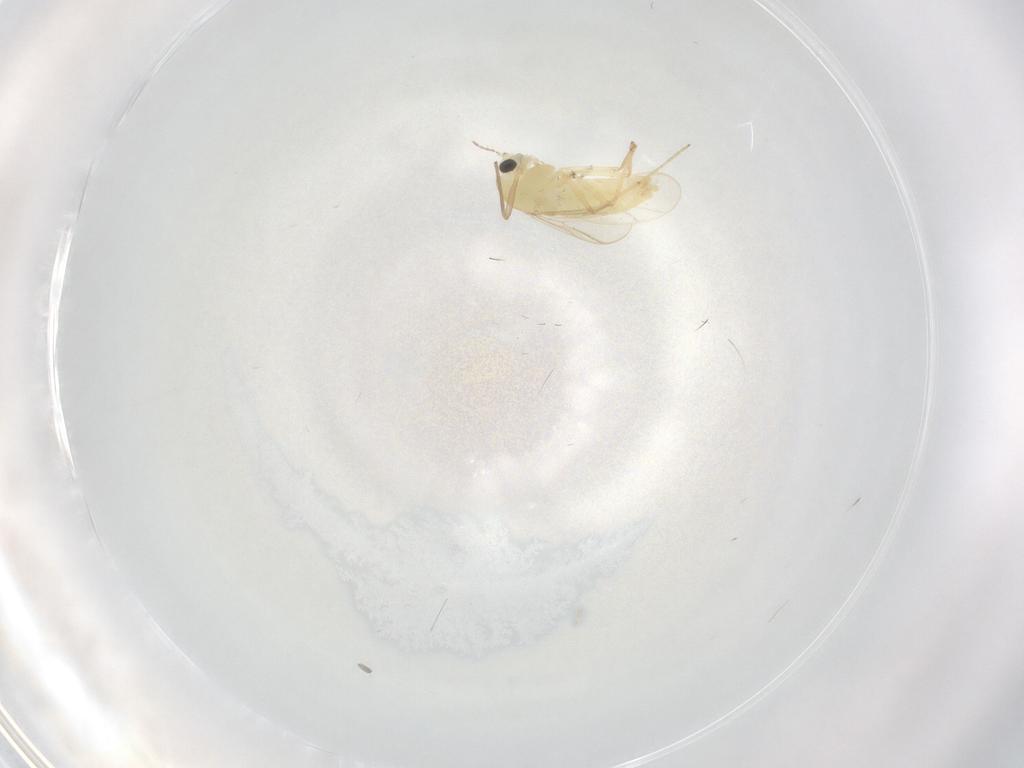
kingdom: Animalia
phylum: Arthropoda
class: Insecta
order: Diptera
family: Chironomidae
